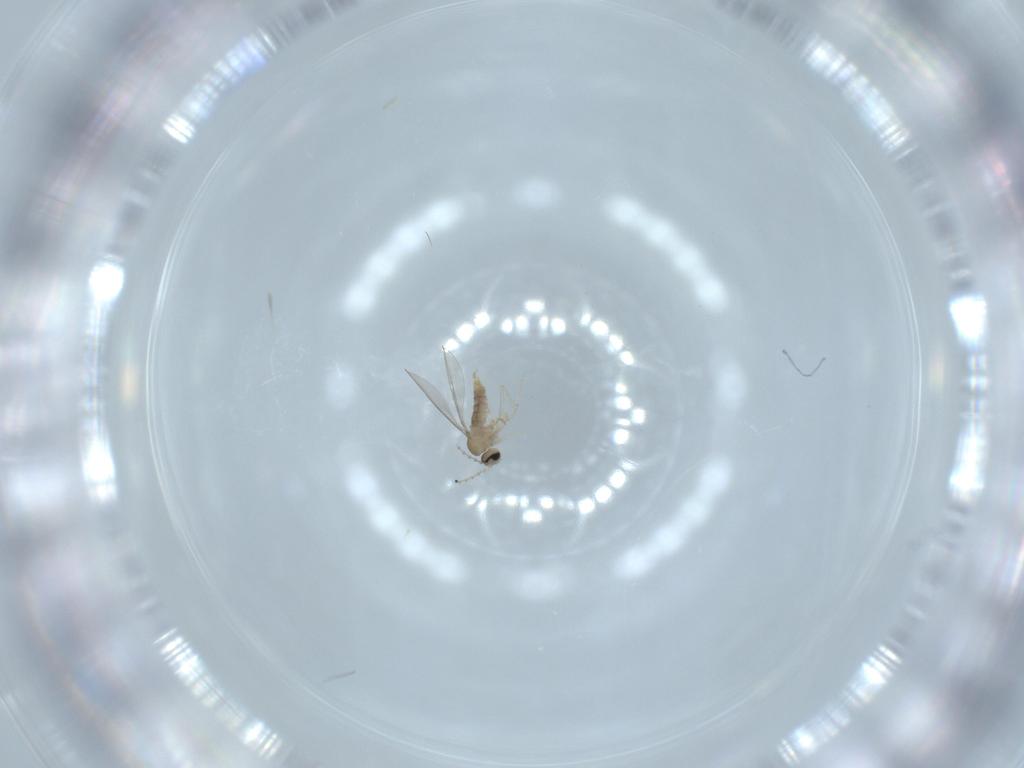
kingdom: Animalia
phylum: Arthropoda
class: Insecta
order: Diptera
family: Cecidomyiidae
